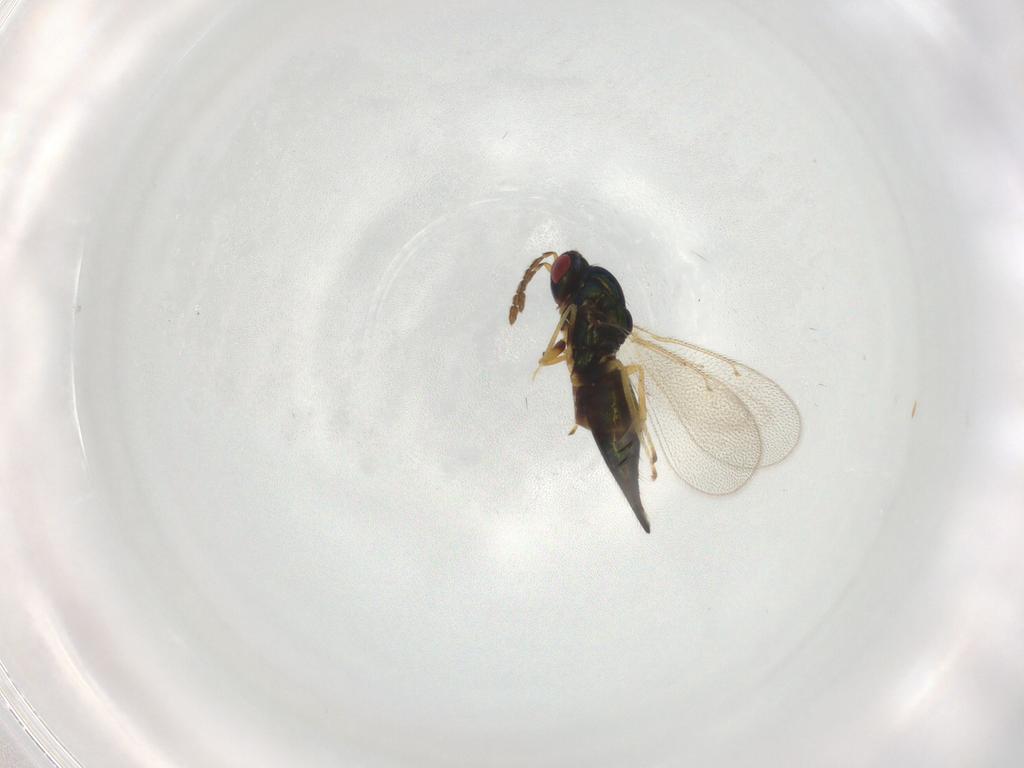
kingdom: Animalia
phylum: Arthropoda
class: Insecta
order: Hymenoptera
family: Eulophidae
